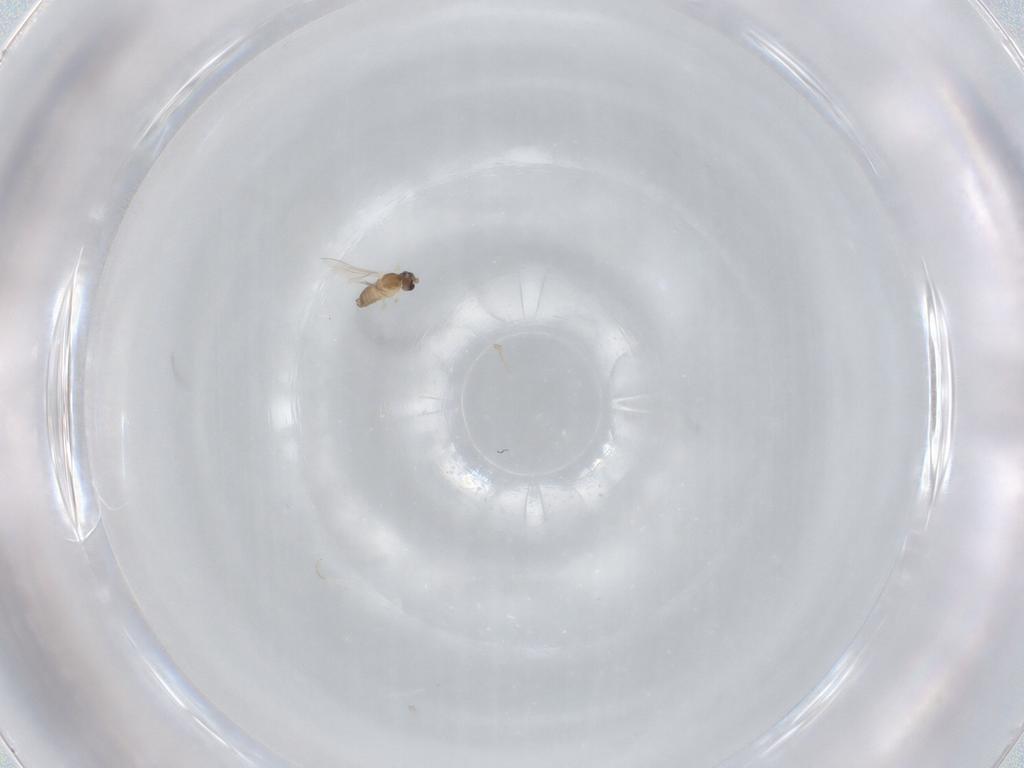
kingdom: Animalia
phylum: Arthropoda
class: Insecta
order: Diptera
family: Cecidomyiidae
